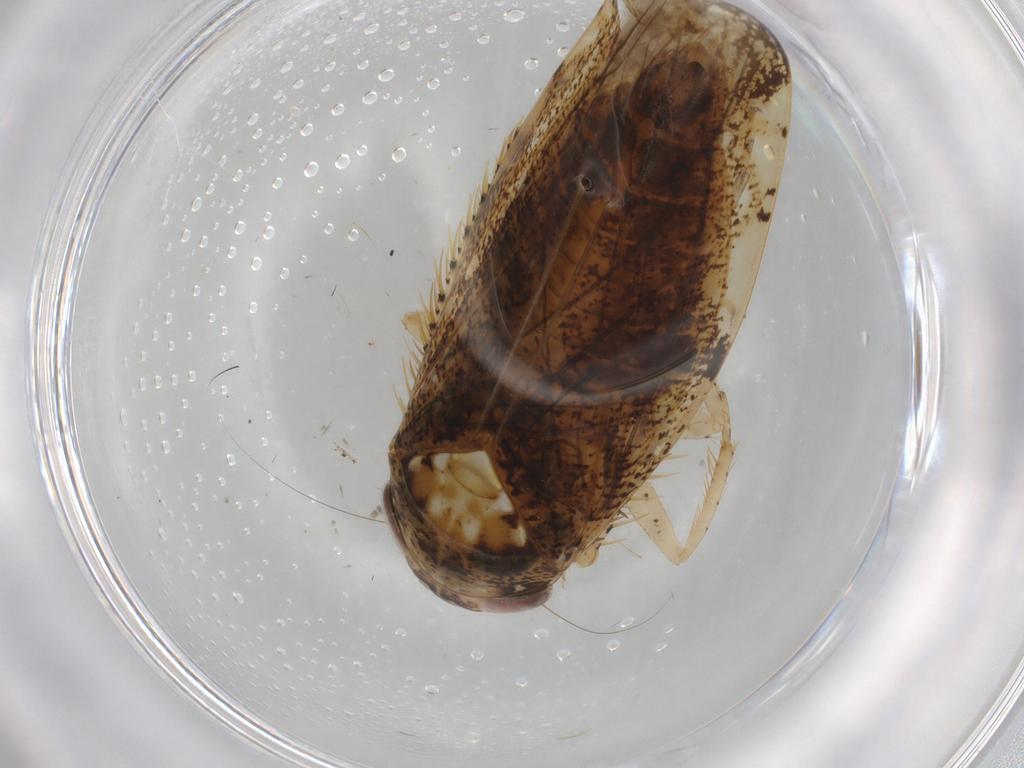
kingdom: Animalia
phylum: Arthropoda
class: Insecta
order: Hemiptera
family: Cicadellidae
